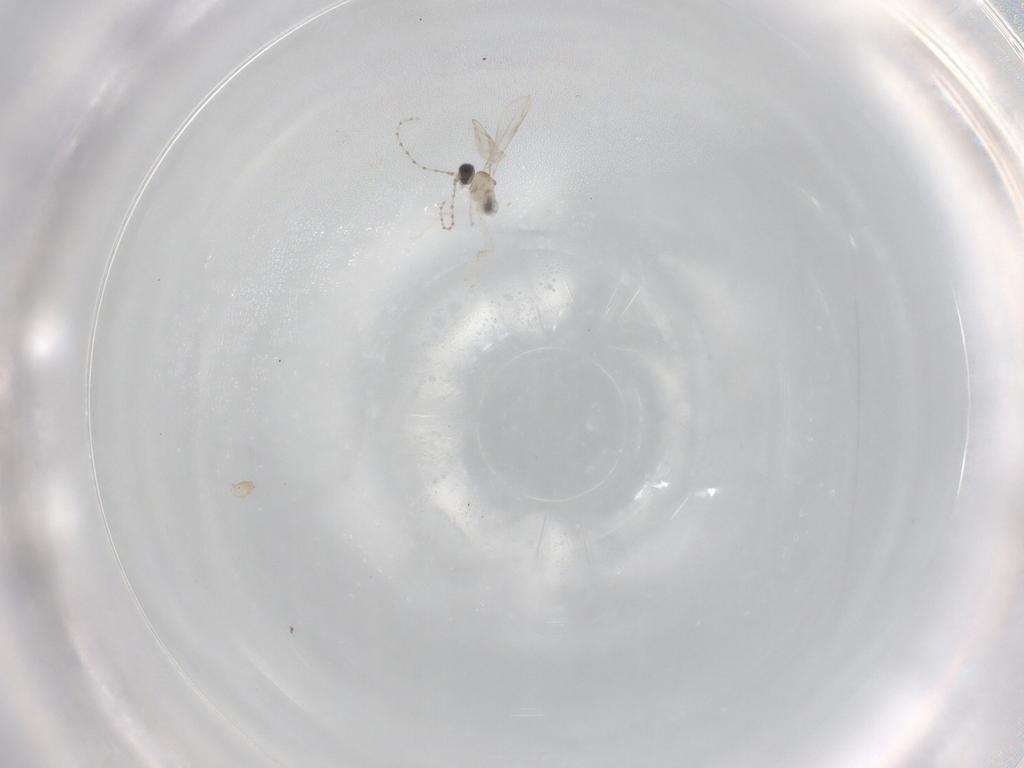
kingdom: Animalia
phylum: Arthropoda
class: Insecta
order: Diptera
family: Cecidomyiidae
